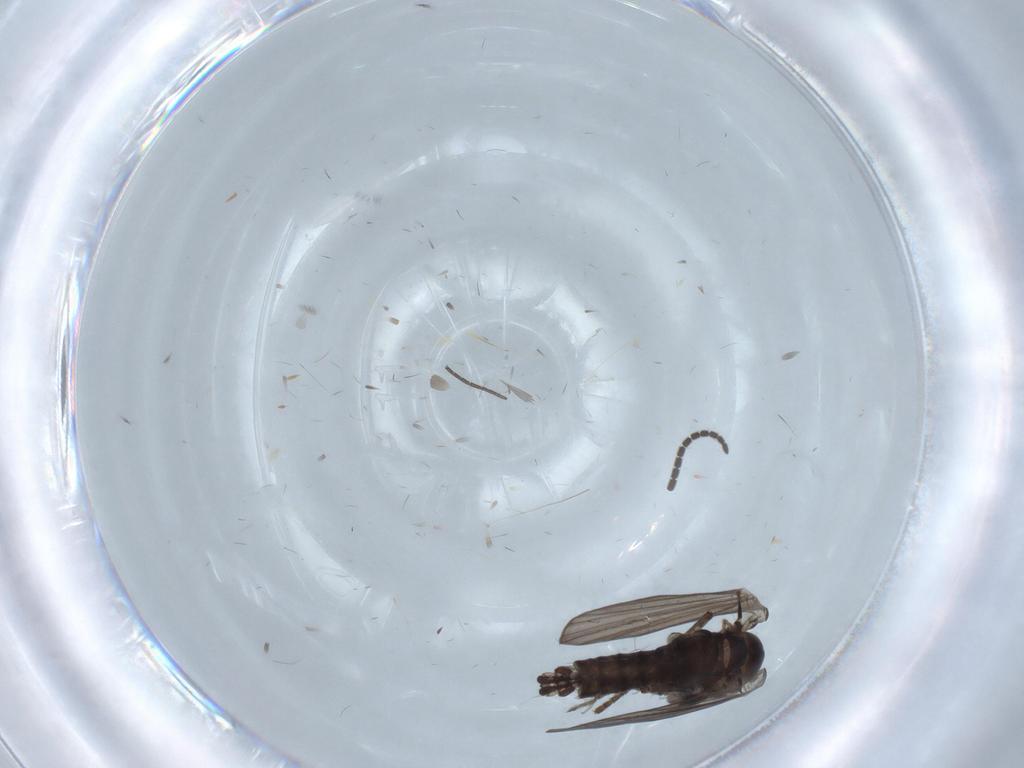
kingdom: Animalia
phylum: Arthropoda
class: Insecta
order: Diptera
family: Psychodidae
